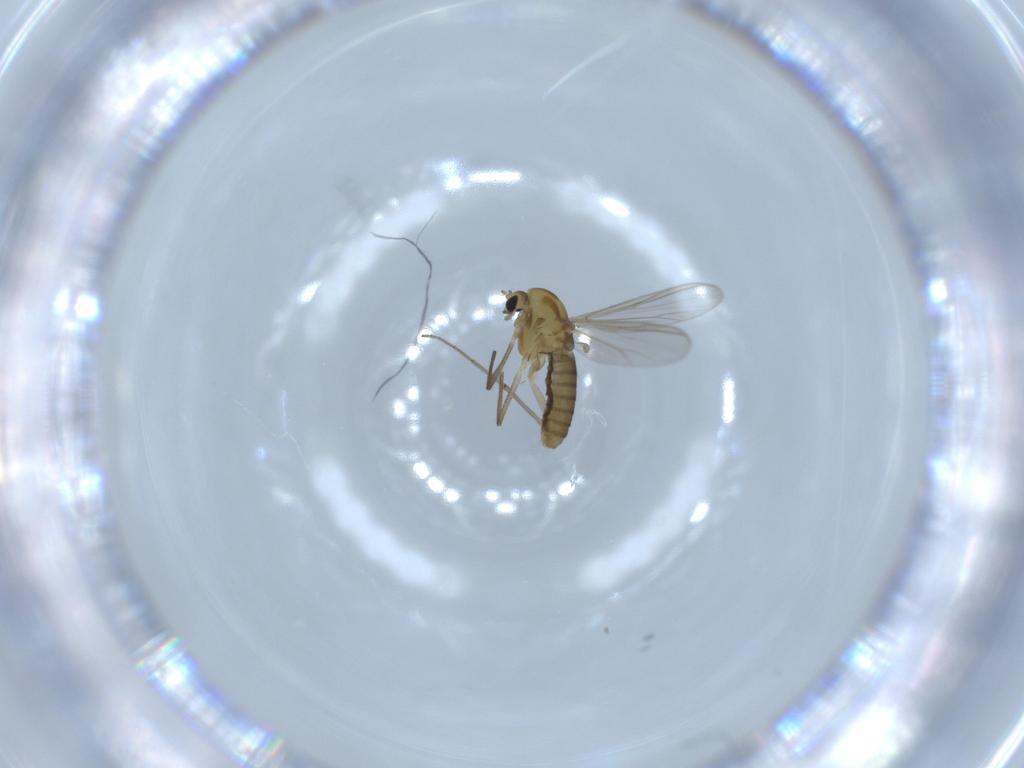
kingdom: Animalia
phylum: Arthropoda
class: Insecta
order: Diptera
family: Chironomidae
